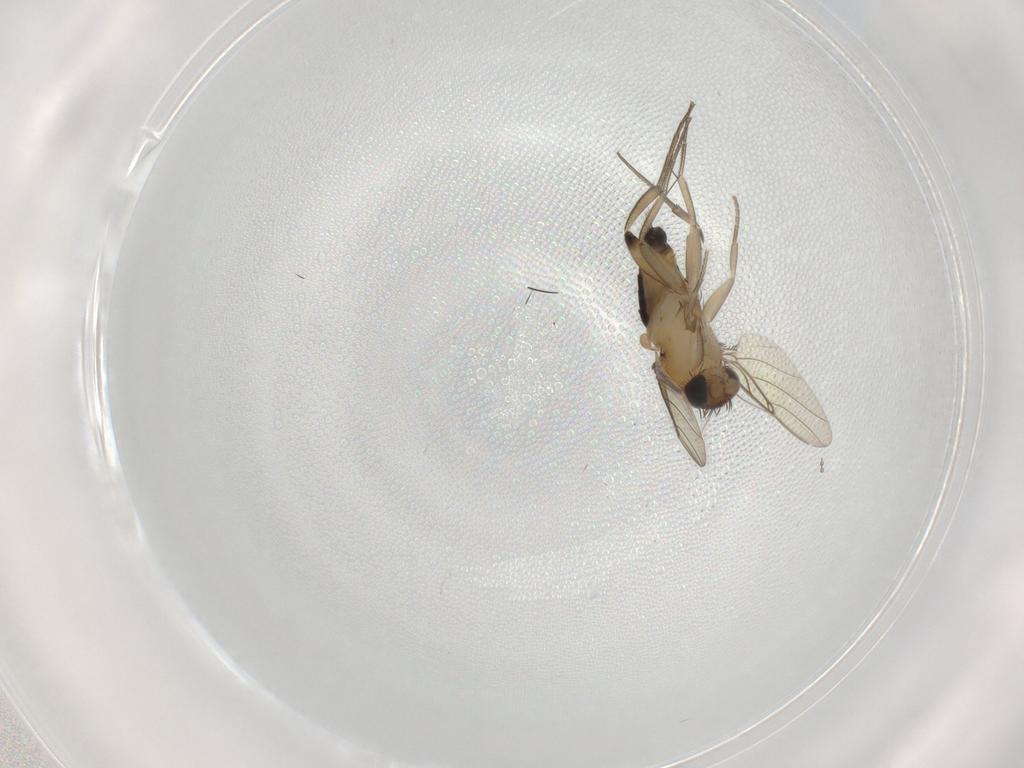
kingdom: Animalia
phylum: Arthropoda
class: Insecta
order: Diptera
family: Phoridae
